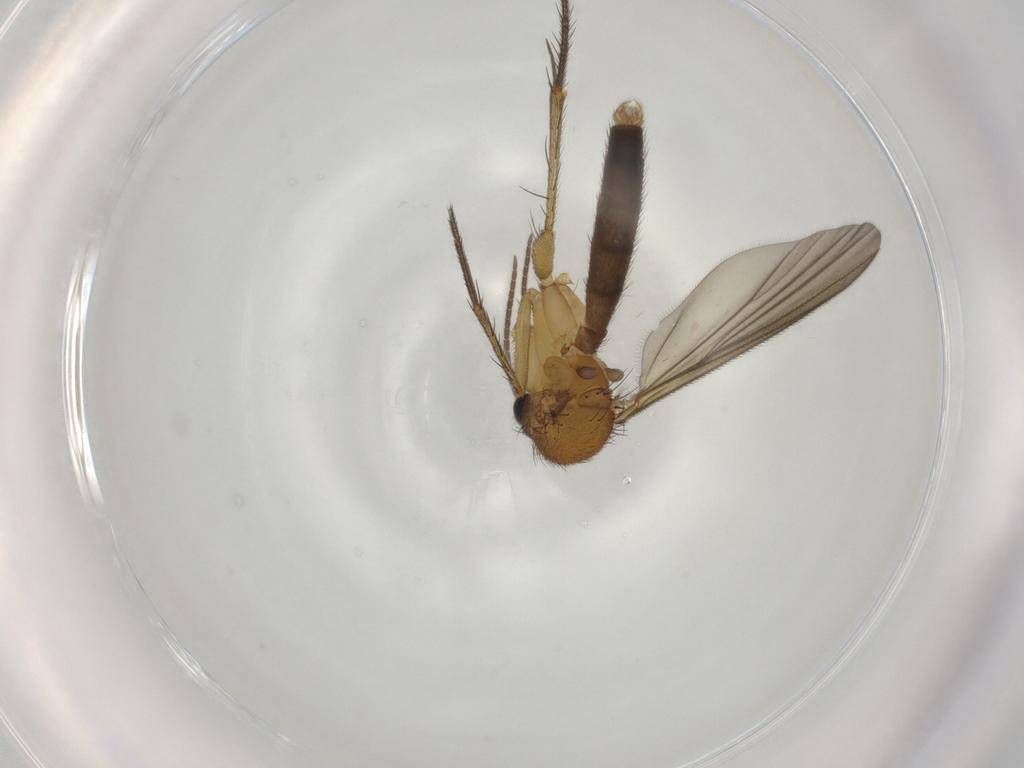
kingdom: Animalia
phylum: Arthropoda
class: Insecta
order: Diptera
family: Mycetophilidae
